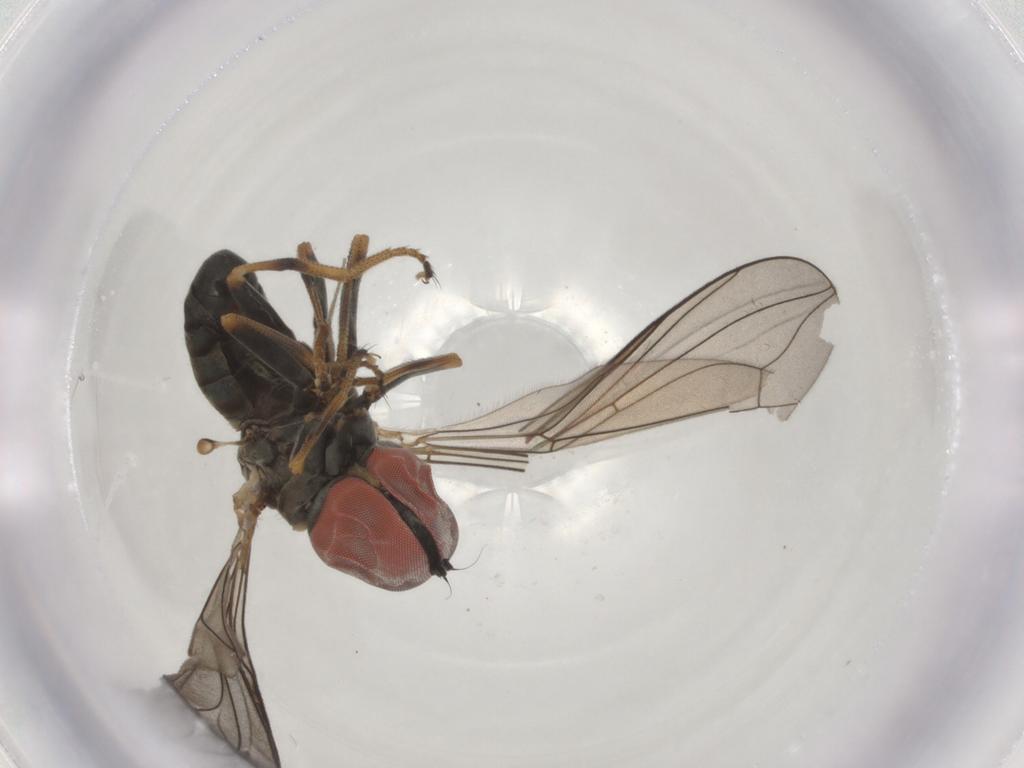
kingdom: Animalia
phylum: Arthropoda
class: Insecta
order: Diptera
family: Pipunculidae
